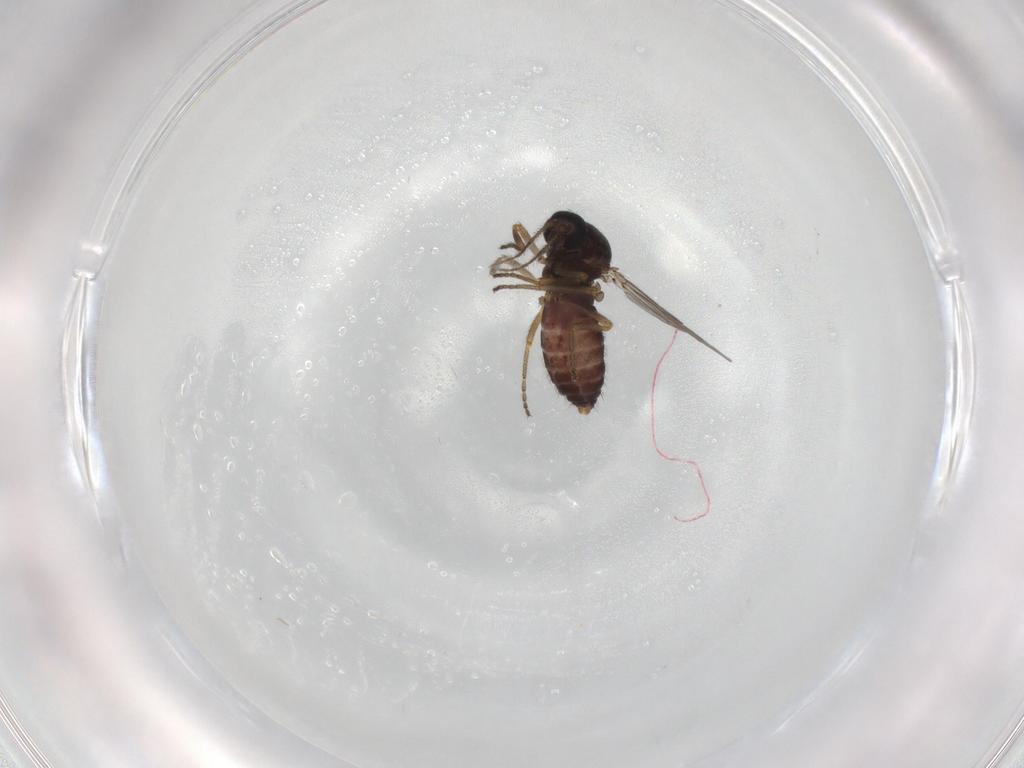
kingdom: Animalia
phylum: Arthropoda
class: Insecta
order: Diptera
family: Ceratopogonidae
